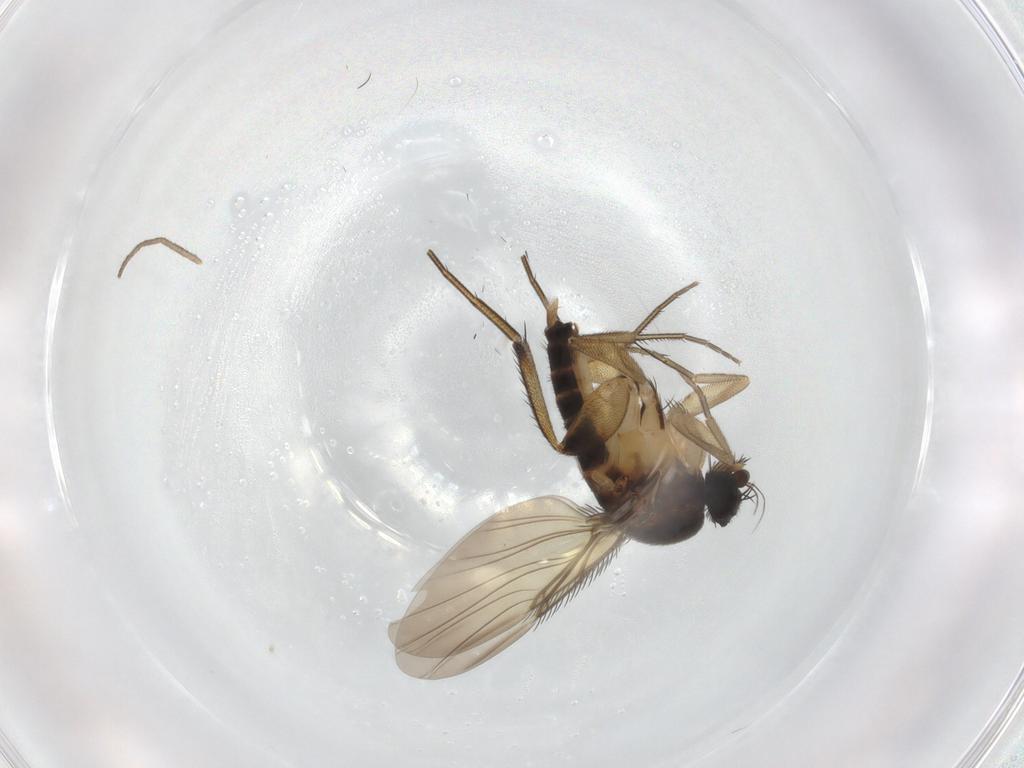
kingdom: Animalia
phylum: Arthropoda
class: Insecta
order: Diptera
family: Phoridae
